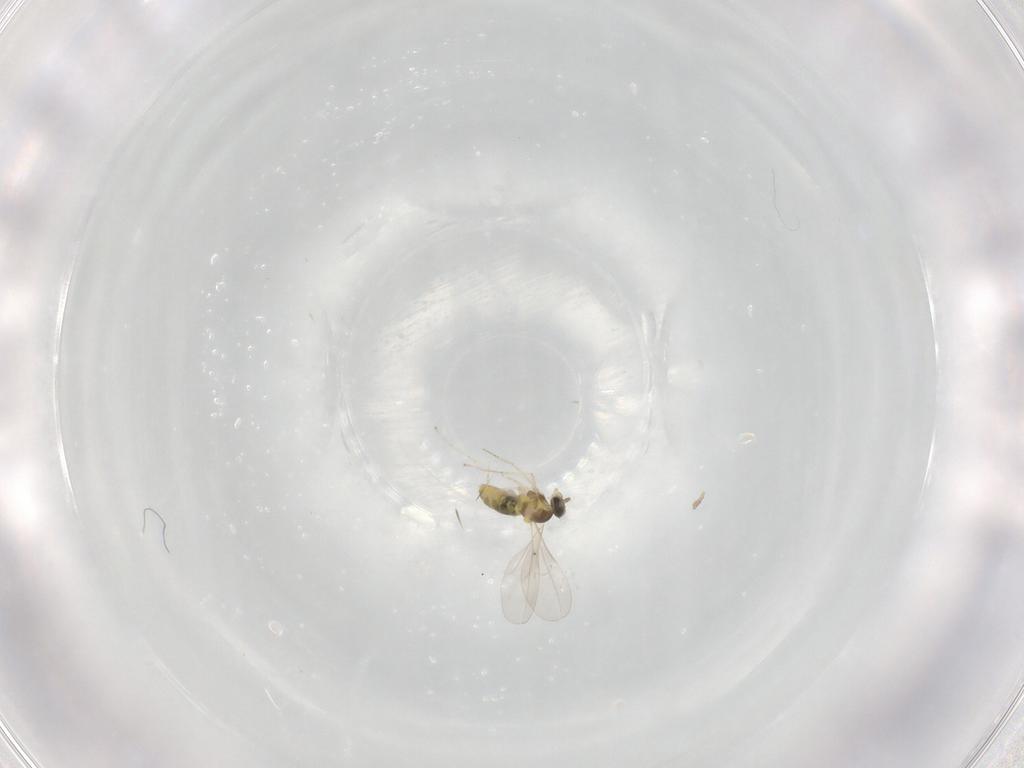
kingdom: Animalia
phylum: Arthropoda
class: Insecta
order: Diptera
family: Cecidomyiidae
